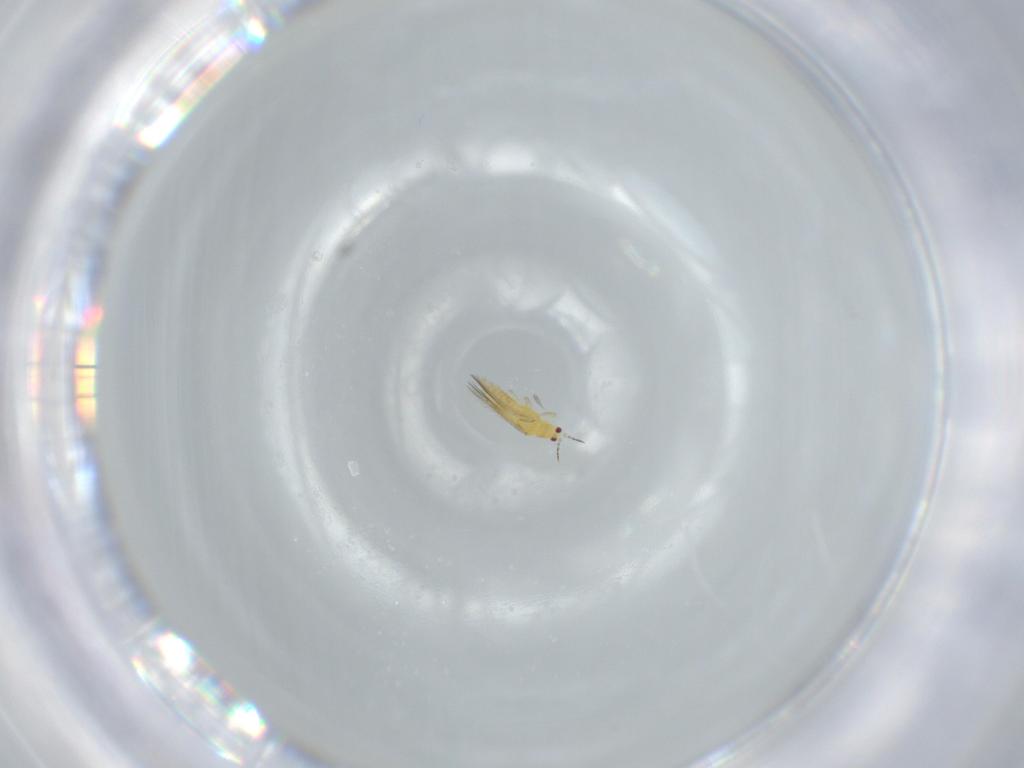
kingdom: Animalia
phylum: Arthropoda
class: Insecta
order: Thysanoptera
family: Thripidae
